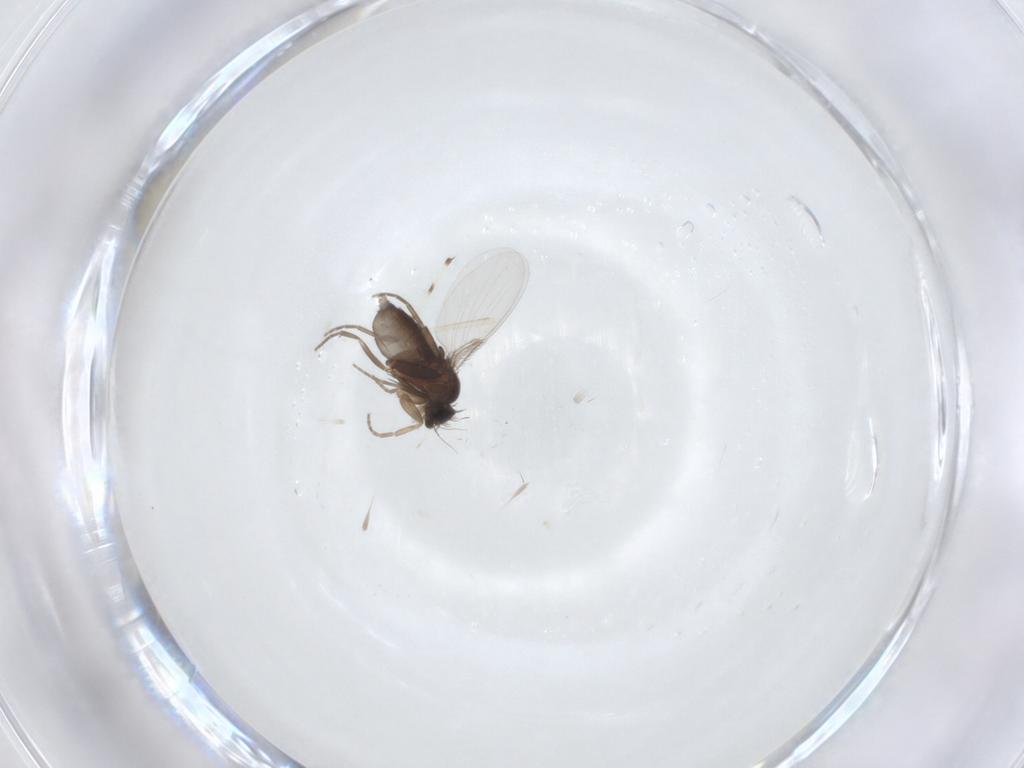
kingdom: Animalia
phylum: Arthropoda
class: Insecta
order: Diptera
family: Phoridae
